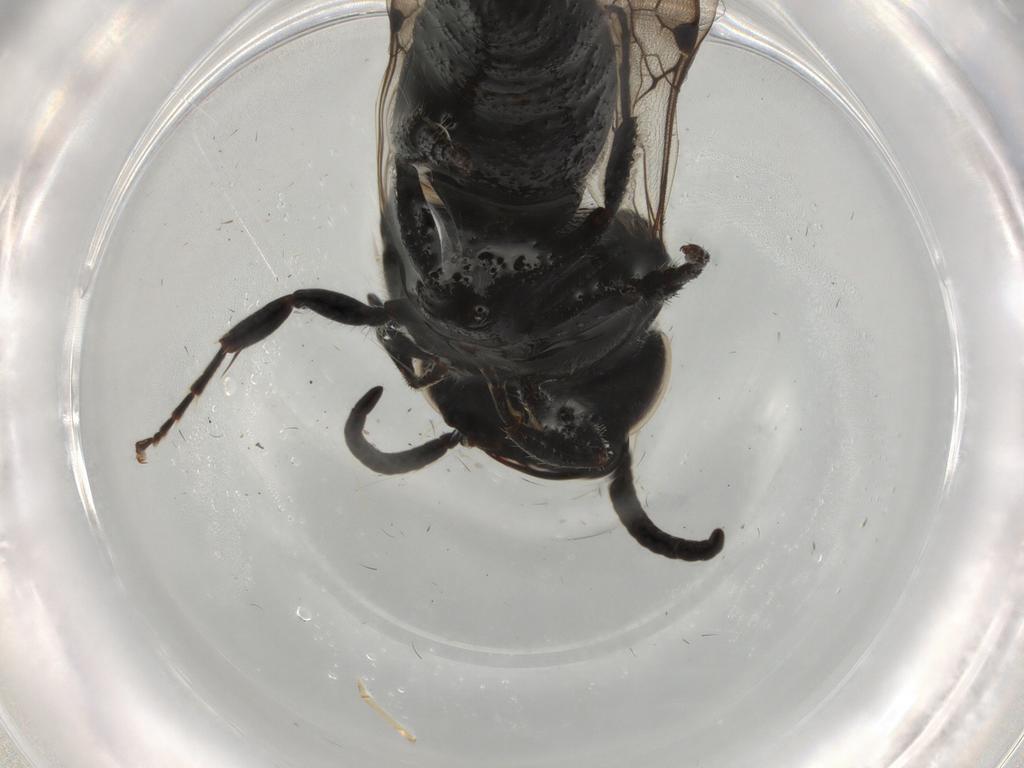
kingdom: Animalia
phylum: Arthropoda
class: Insecta
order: Hymenoptera
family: Tiphiidae
